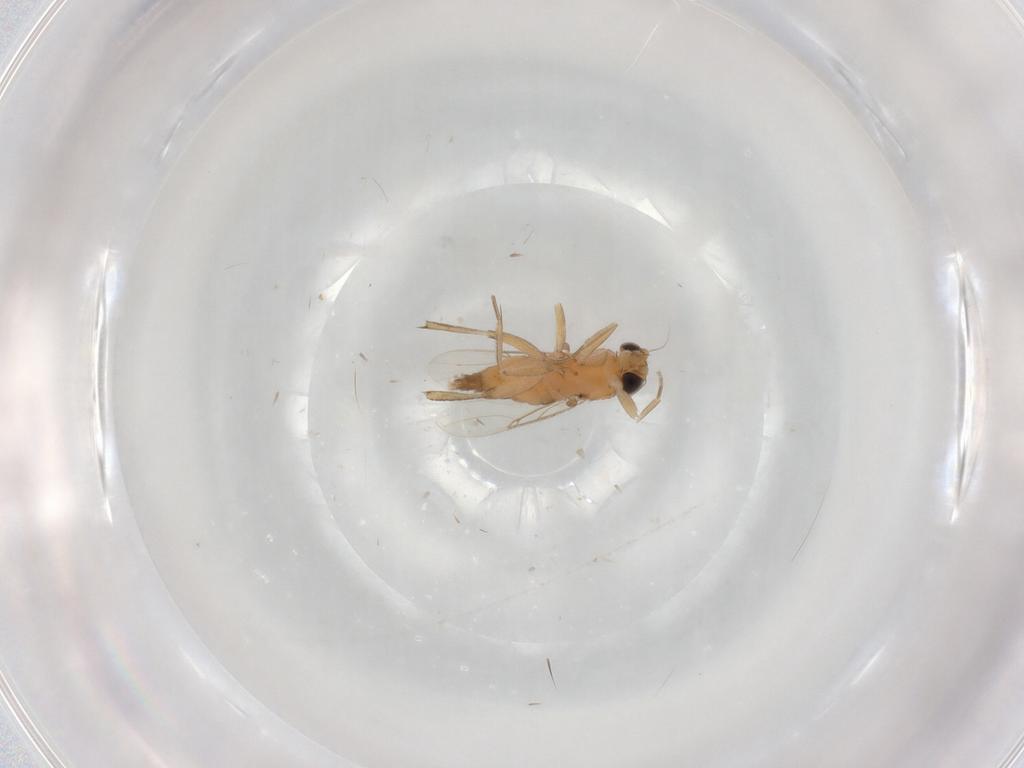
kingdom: Animalia
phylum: Arthropoda
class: Insecta
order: Diptera
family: Phoridae
